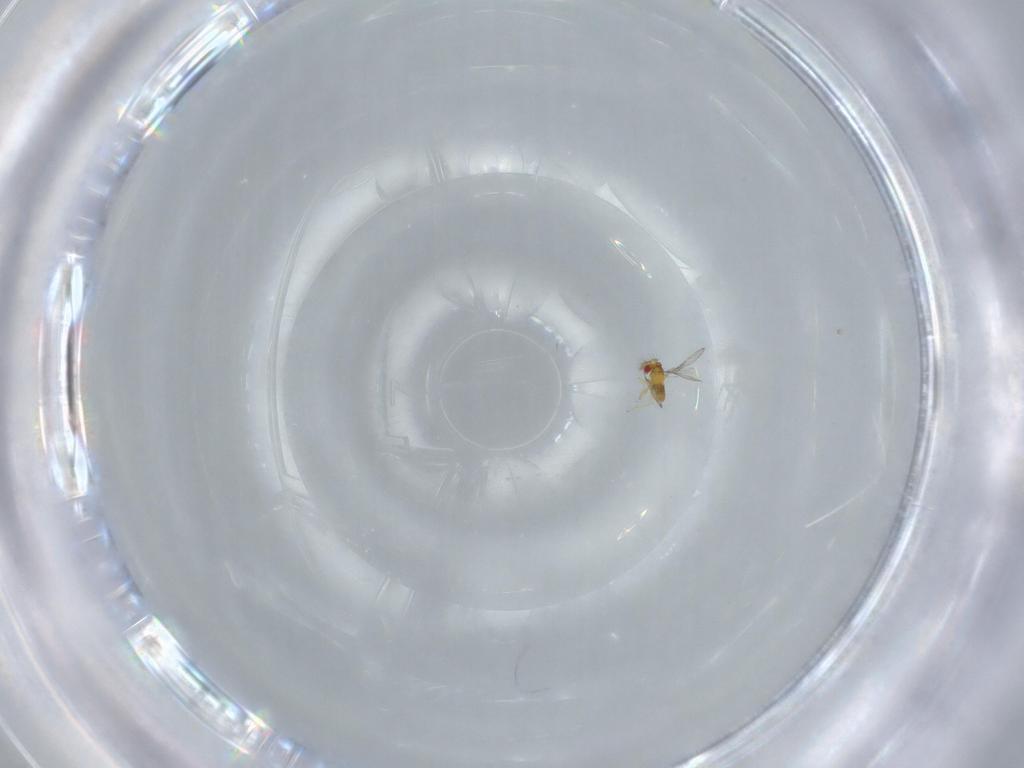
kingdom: Animalia
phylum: Arthropoda
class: Insecta
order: Hymenoptera
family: Trichogrammatidae
